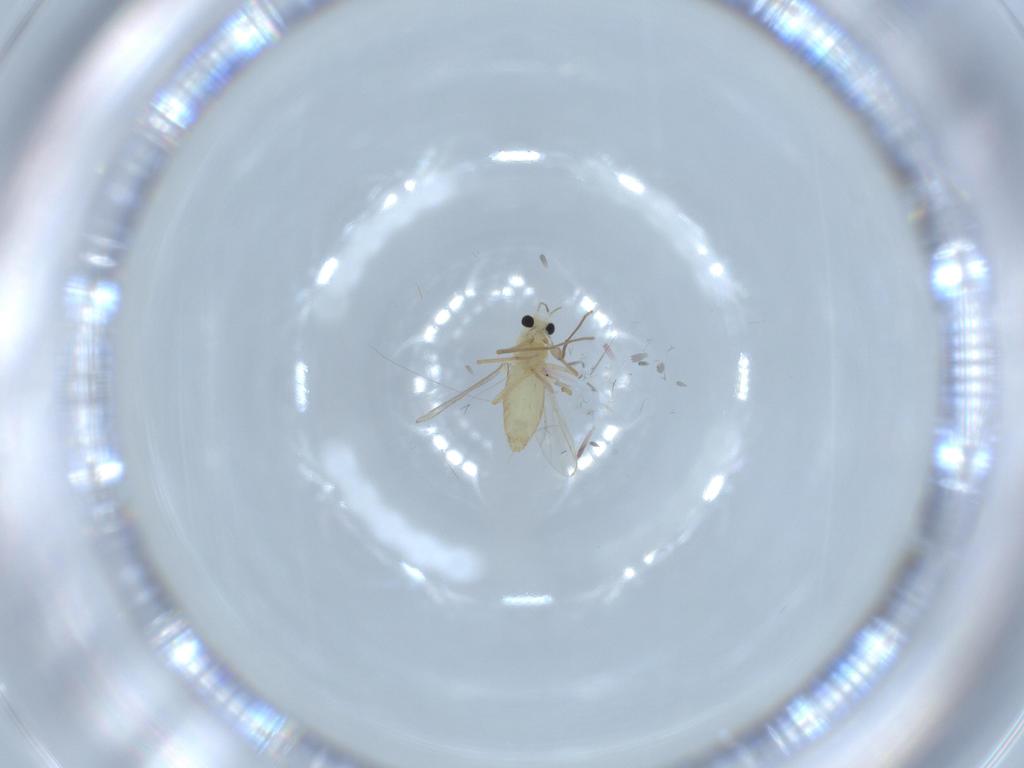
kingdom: Animalia
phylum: Arthropoda
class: Insecta
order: Diptera
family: Chironomidae
